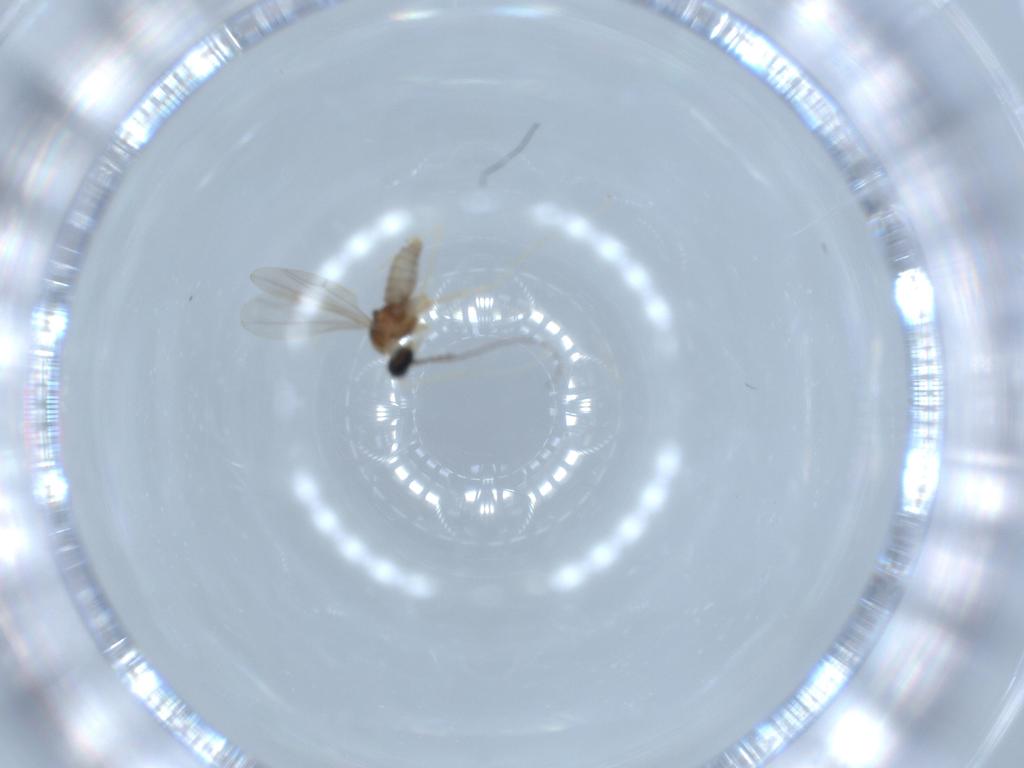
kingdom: Animalia
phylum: Arthropoda
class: Insecta
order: Diptera
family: Cecidomyiidae
